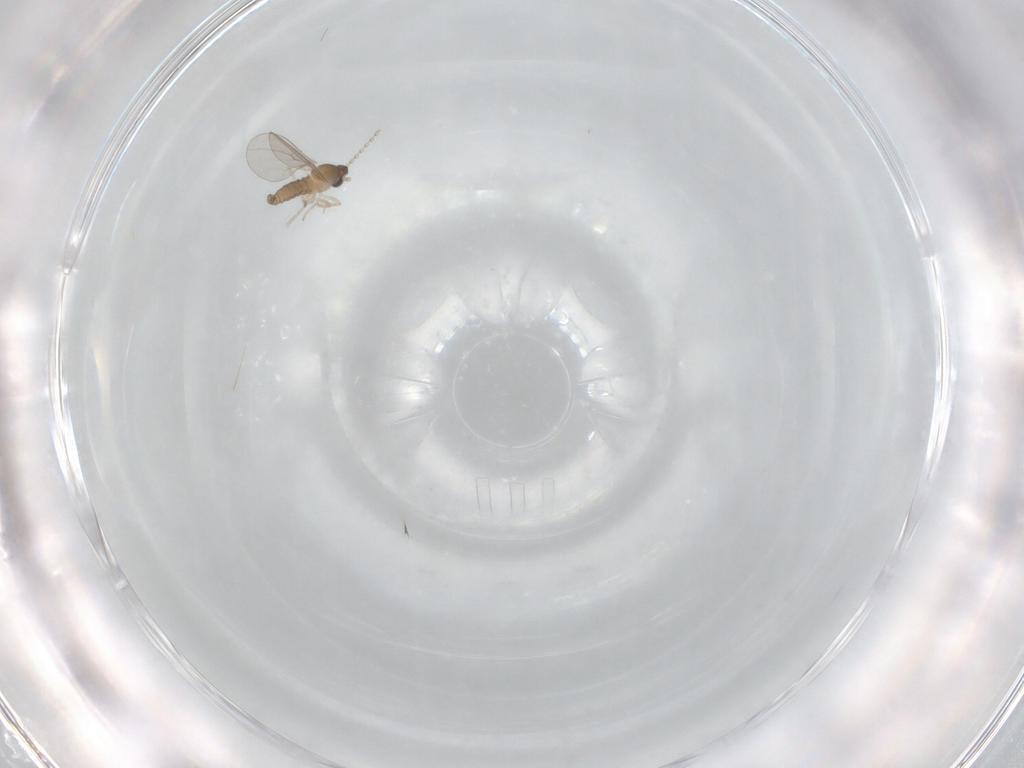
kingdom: Animalia
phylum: Arthropoda
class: Insecta
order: Diptera
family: Cecidomyiidae
